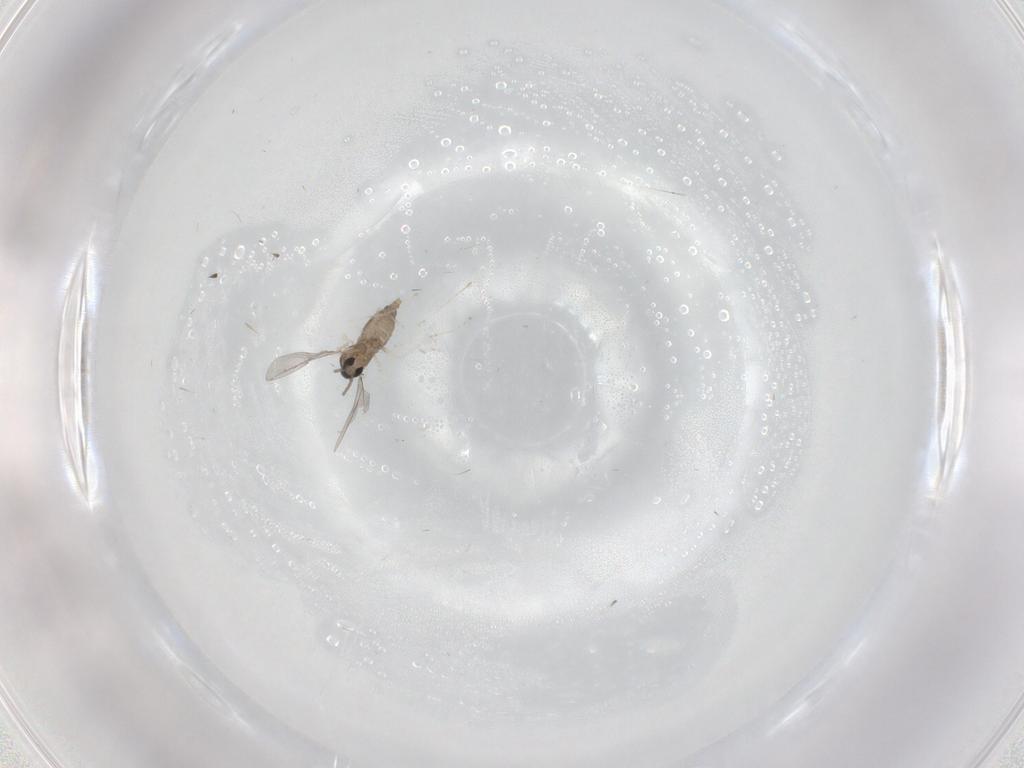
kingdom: Animalia
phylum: Arthropoda
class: Insecta
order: Diptera
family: Cecidomyiidae
